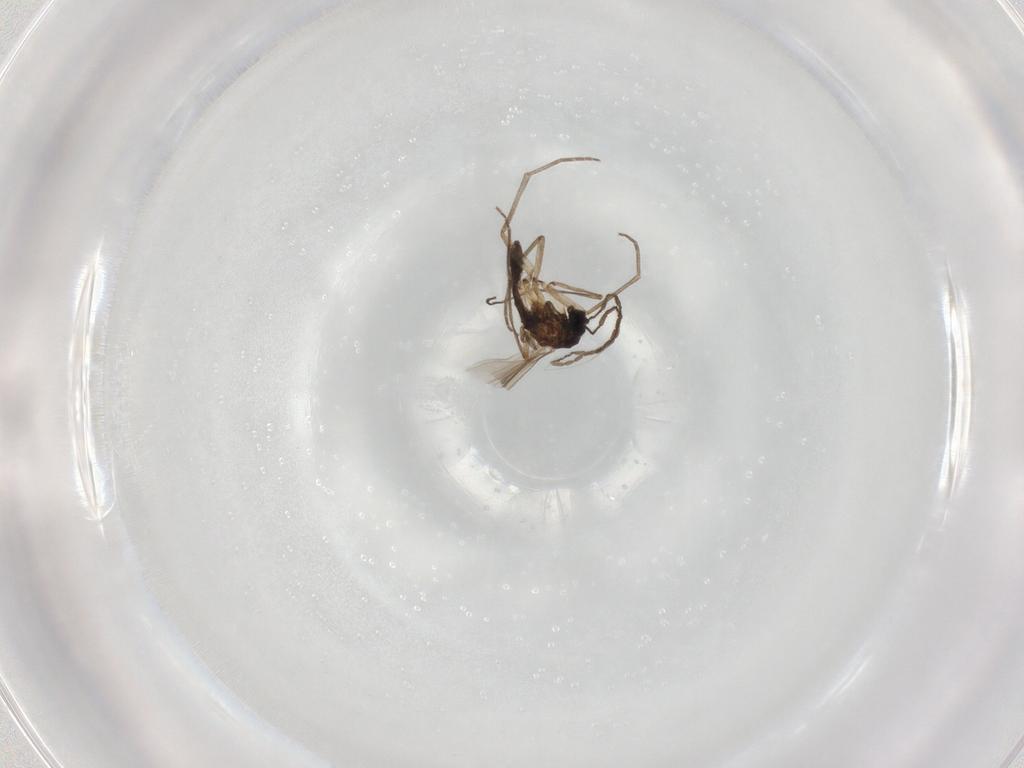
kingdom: Animalia
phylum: Arthropoda
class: Insecta
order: Diptera
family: Sciaridae
